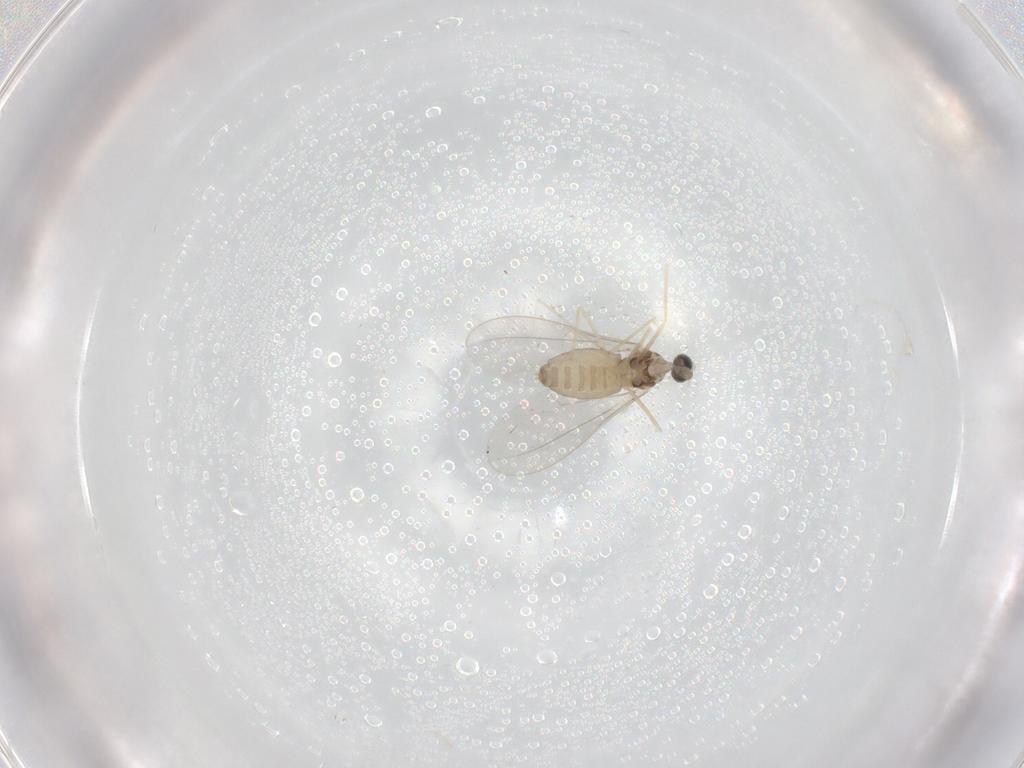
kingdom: Animalia
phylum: Arthropoda
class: Insecta
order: Diptera
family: Cecidomyiidae
